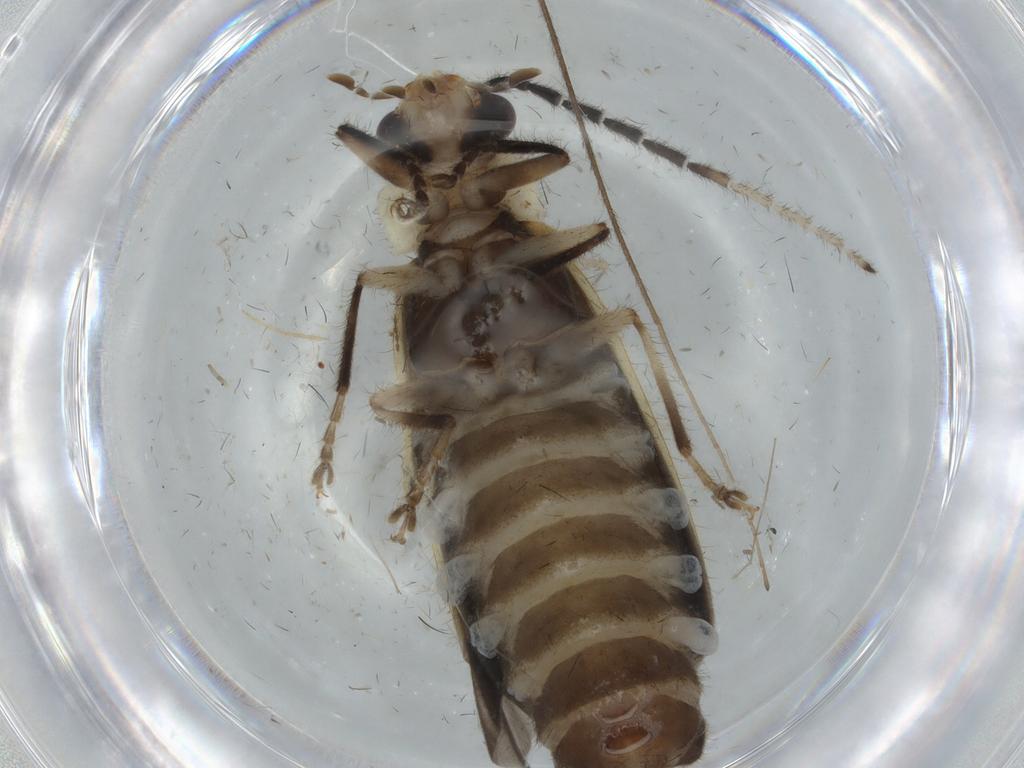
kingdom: Animalia
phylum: Arthropoda
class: Insecta
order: Coleoptera
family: Cantharidae
